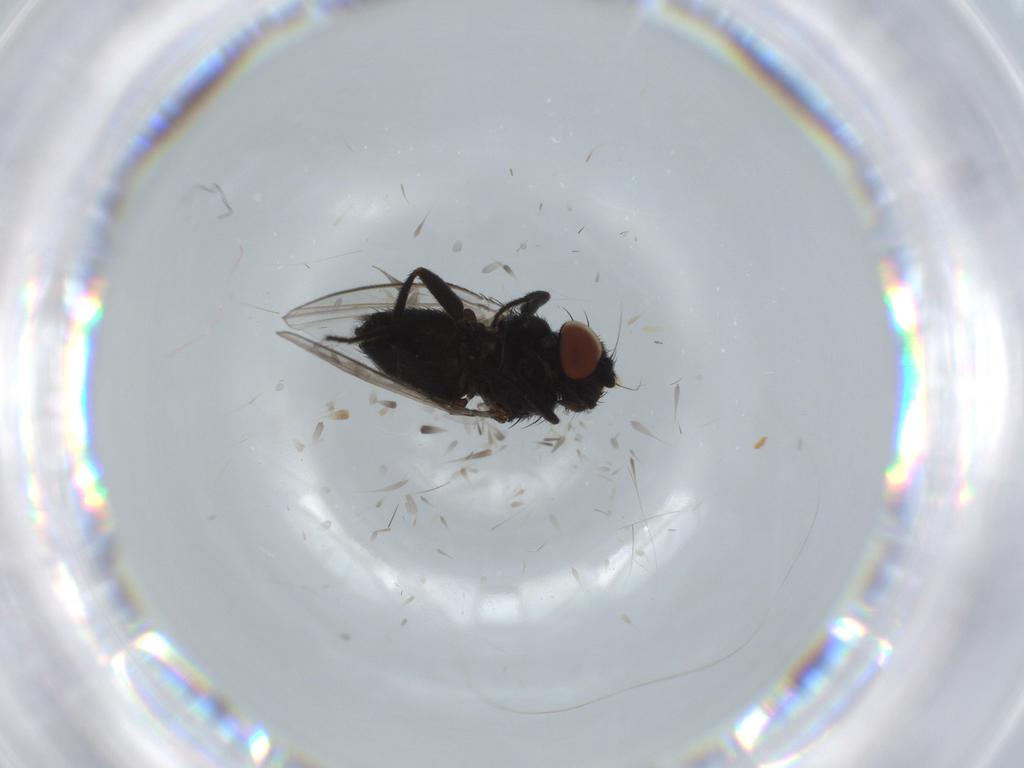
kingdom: Animalia
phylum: Arthropoda
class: Insecta
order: Diptera
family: Milichiidae
